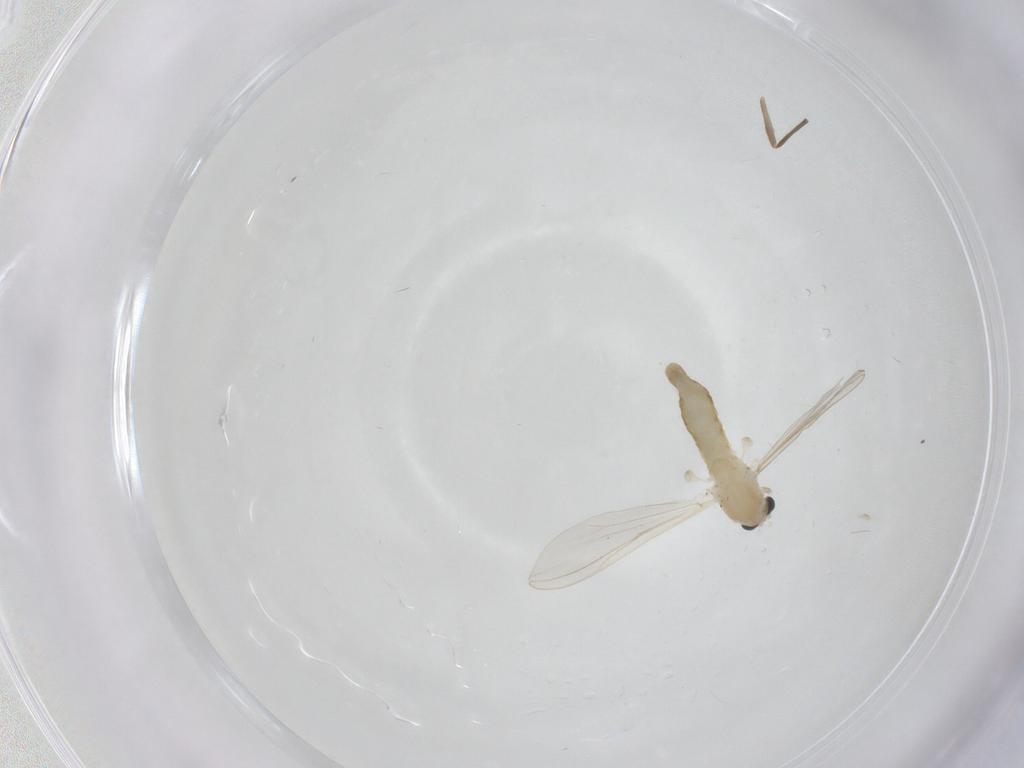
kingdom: Animalia
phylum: Arthropoda
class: Insecta
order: Diptera
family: Chironomidae
